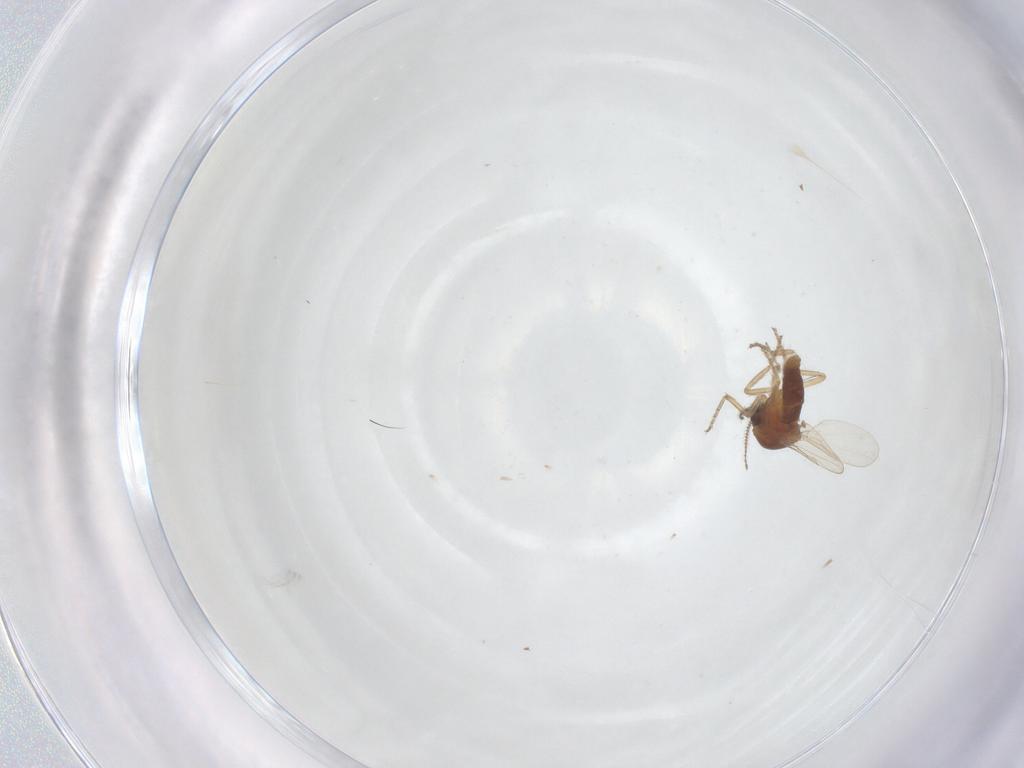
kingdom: Animalia
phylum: Arthropoda
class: Insecta
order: Diptera
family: Ceratopogonidae
